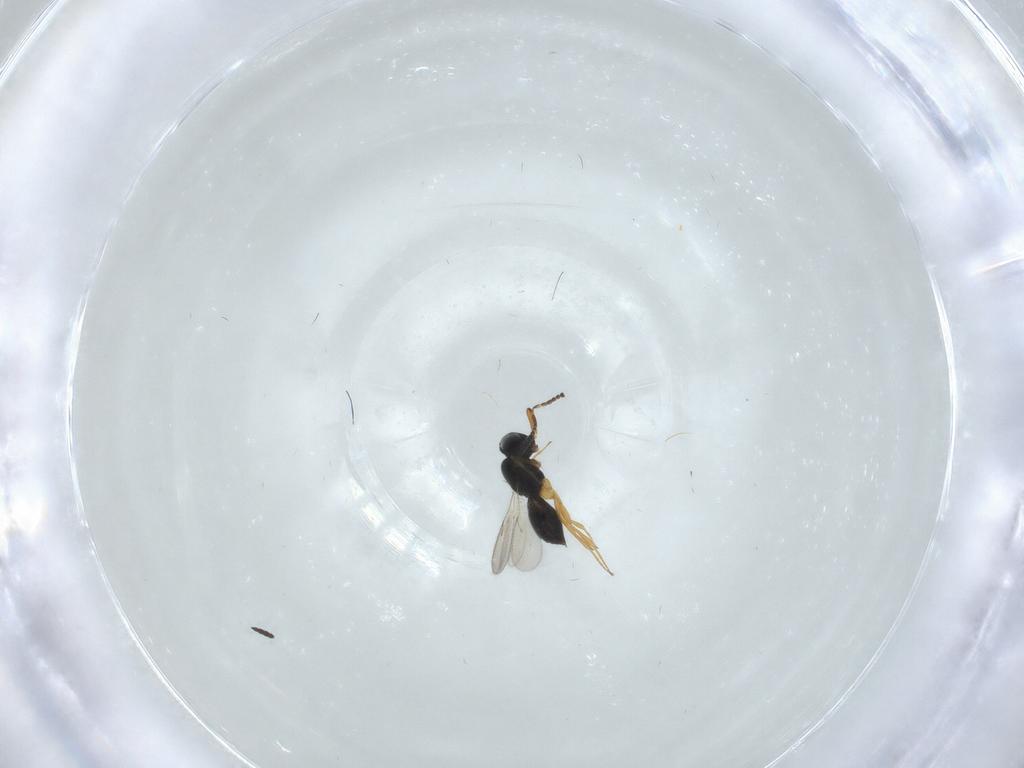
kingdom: Animalia
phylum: Arthropoda
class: Insecta
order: Hymenoptera
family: Scelionidae
